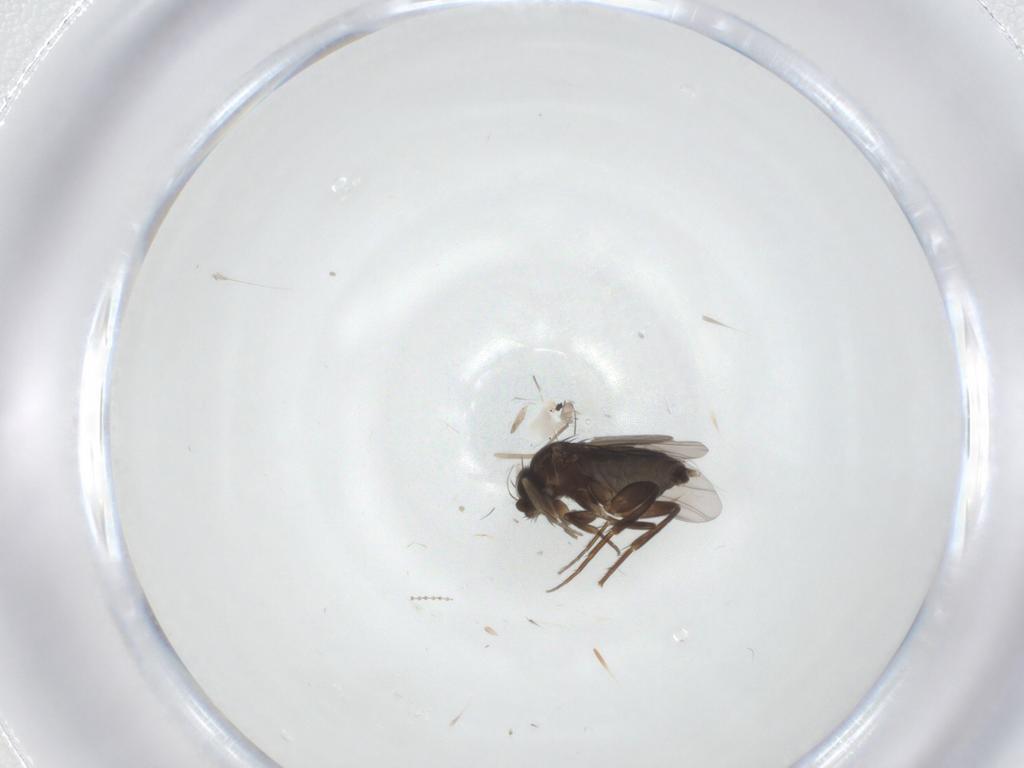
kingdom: Animalia
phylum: Arthropoda
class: Insecta
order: Diptera
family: Phoridae
